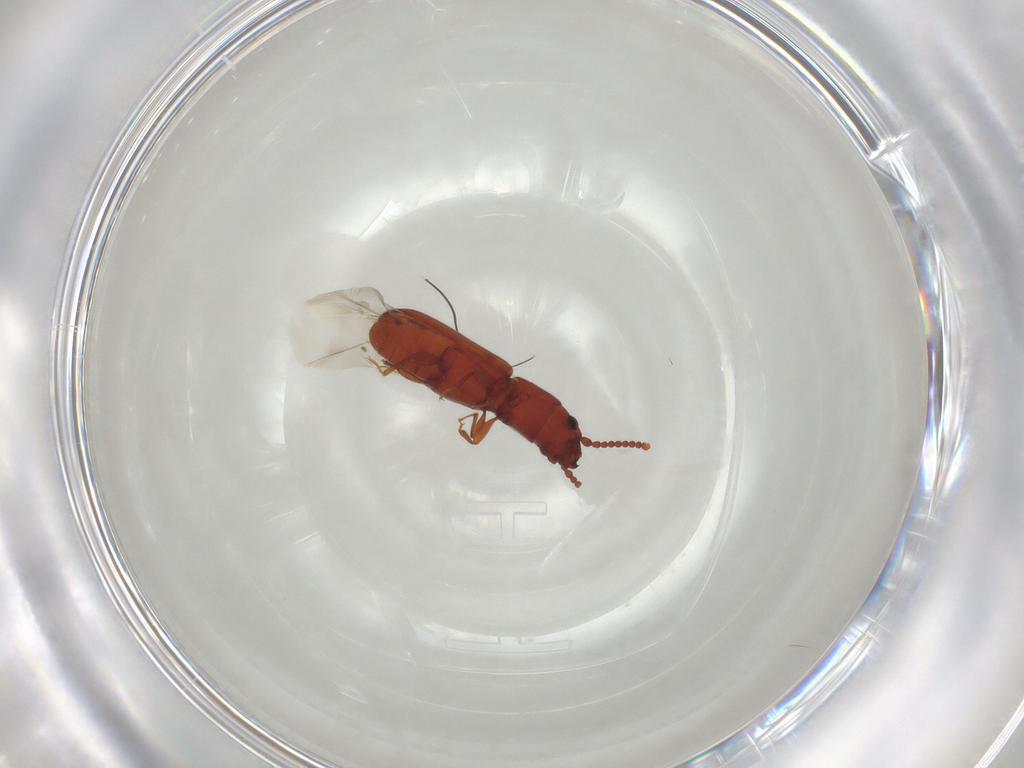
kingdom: Animalia
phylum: Arthropoda
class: Insecta
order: Coleoptera
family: Laemophloeidae
